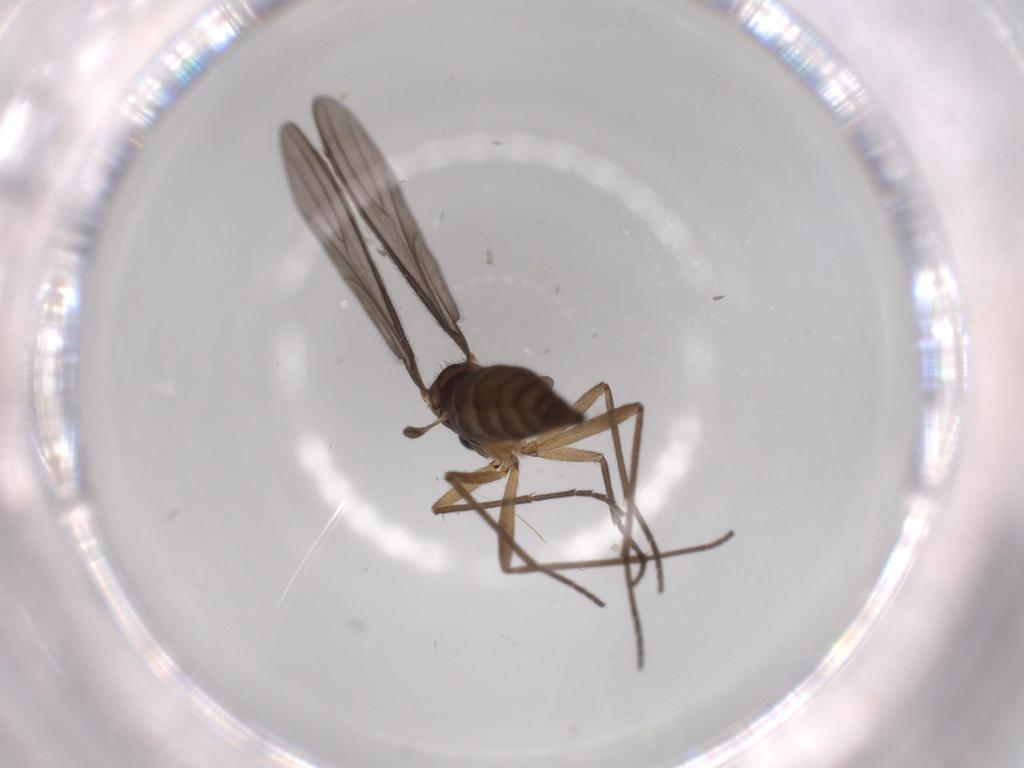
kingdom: Animalia
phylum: Arthropoda
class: Insecta
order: Diptera
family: Sciaridae
